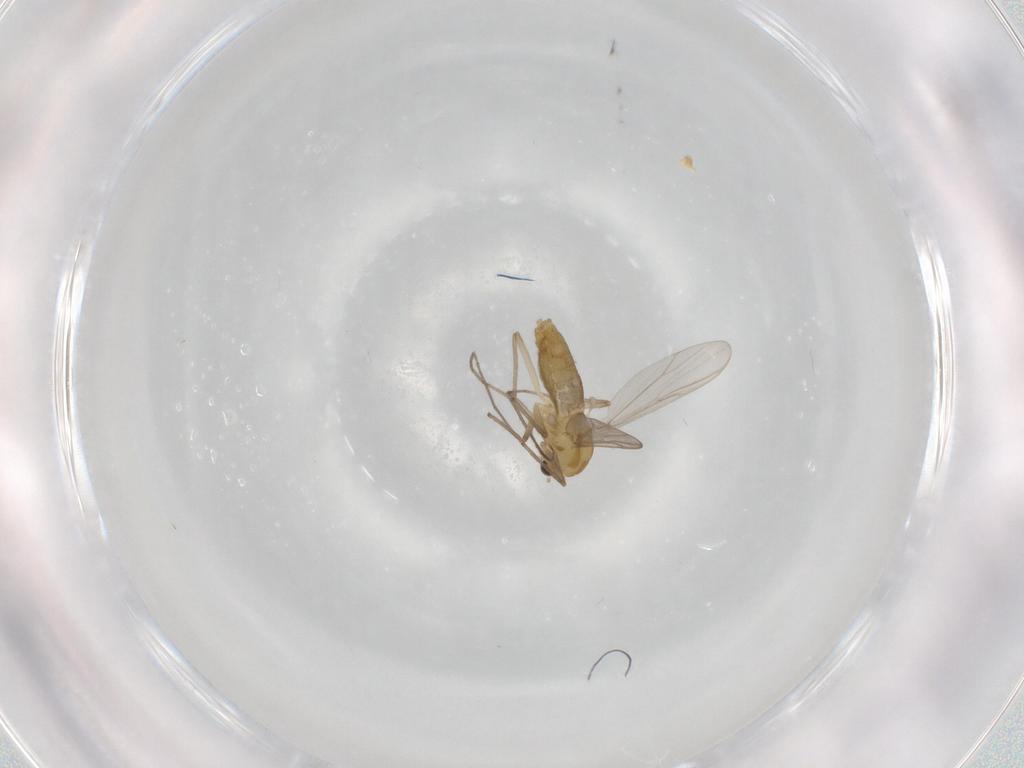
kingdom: Animalia
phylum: Arthropoda
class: Insecta
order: Diptera
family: Chironomidae
